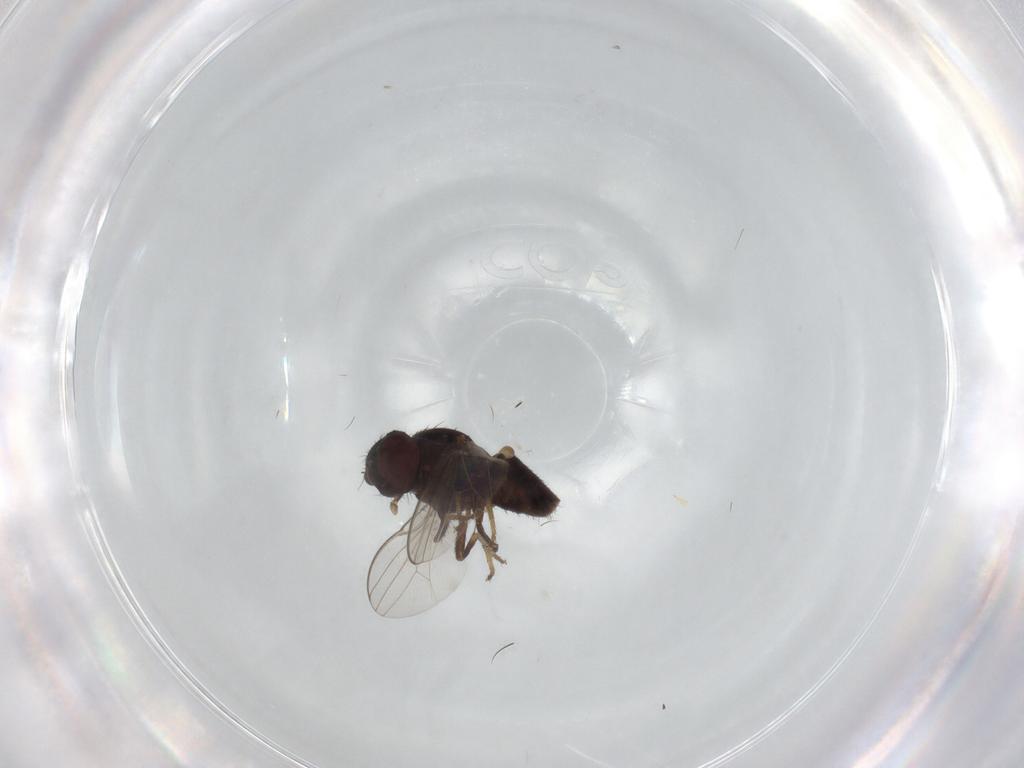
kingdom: Animalia
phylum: Arthropoda
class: Insecta
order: Diptera
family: Milichiidae
